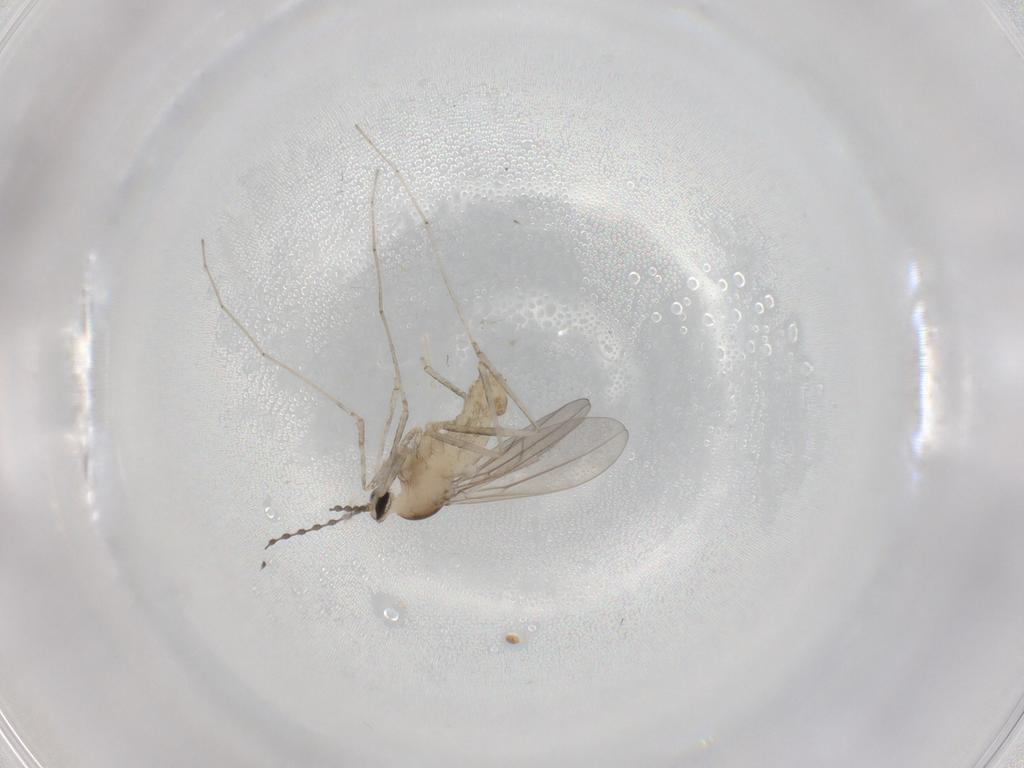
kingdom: Animalia
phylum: Arthropoda
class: Insecta
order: Diptera
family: Cecidomyiidae
